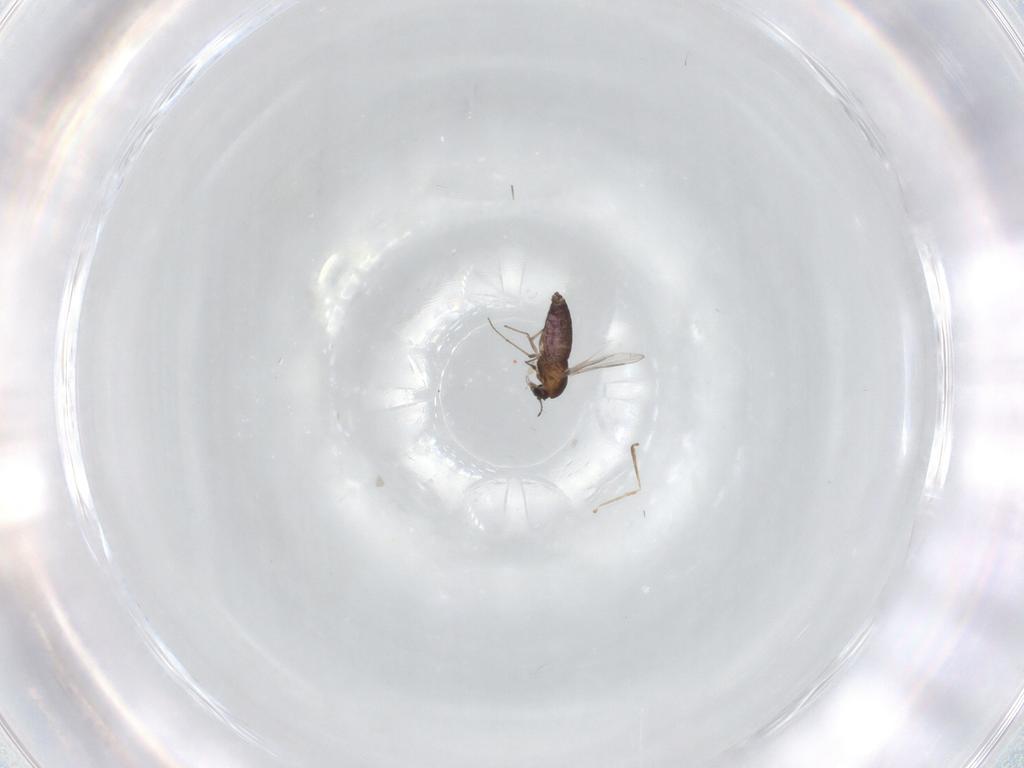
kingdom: Animalia
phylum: Arthropoda
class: Insecta
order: Diptera
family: Chironomidae
